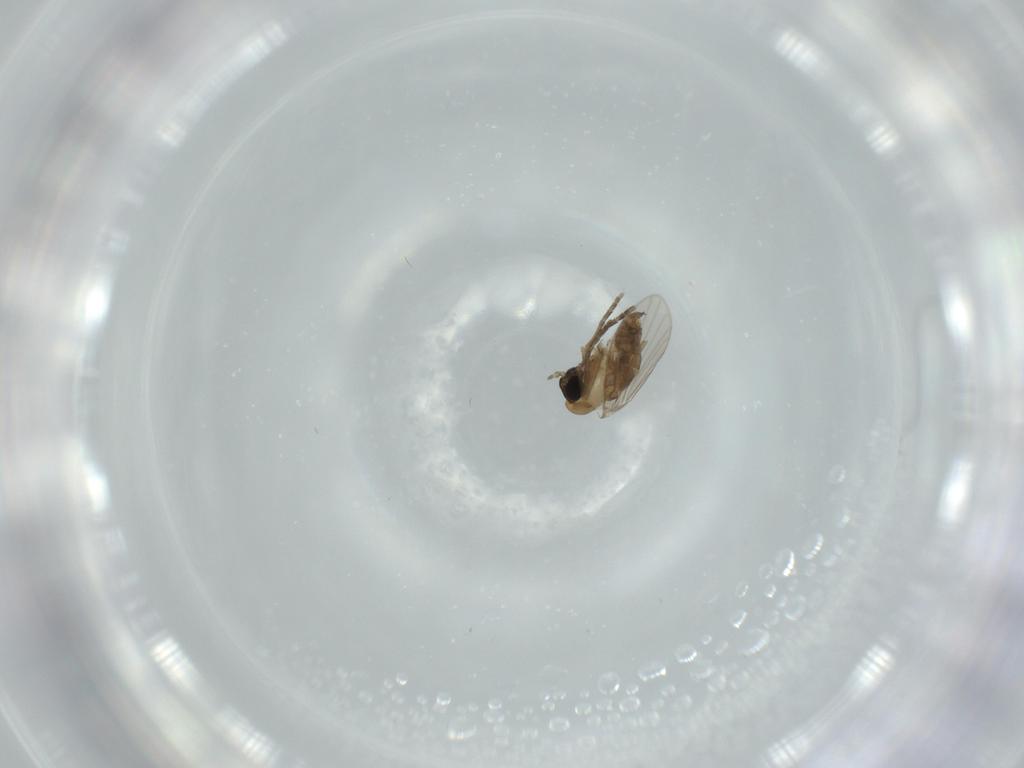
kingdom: Animalia
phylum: Arthropoda
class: Insecta
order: Diptera
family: Psychodidae
